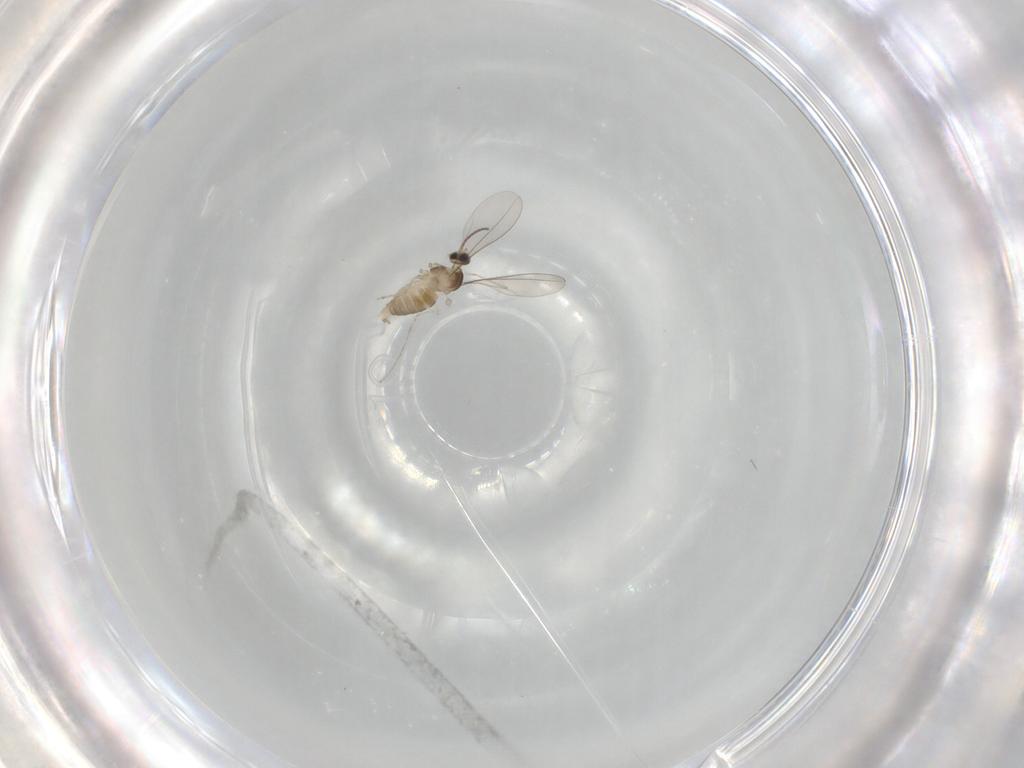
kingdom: Animalia
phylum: Arthropoda
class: Insecta
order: Diptera
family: Cecidomyiidae
